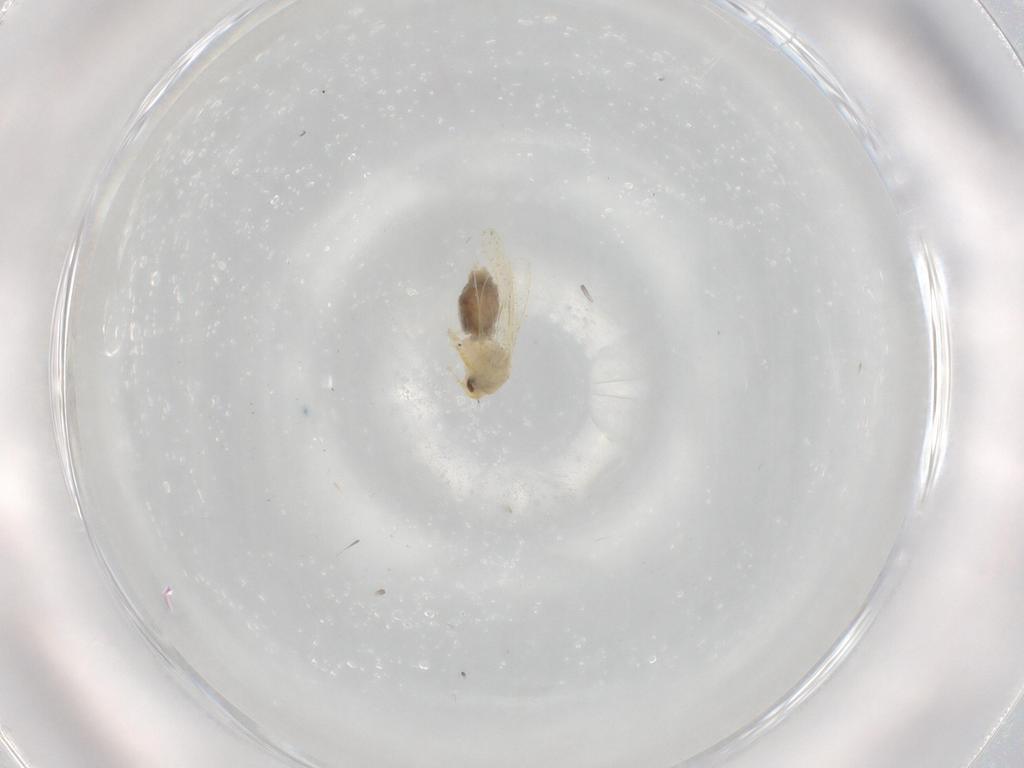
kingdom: Animalia
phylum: Arthropoda
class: Insecta
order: Hemiptera
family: Aleyrodidae
